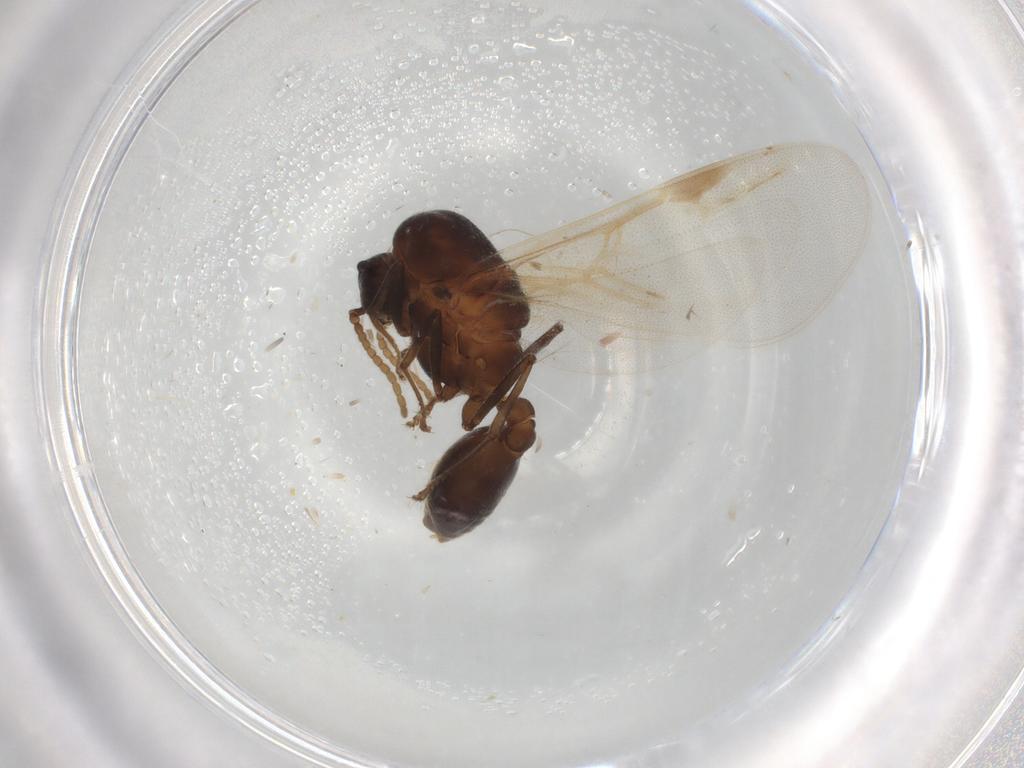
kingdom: Animalia
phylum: Arthropoda
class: Insecta
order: Hymenoptera
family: Formicidae
